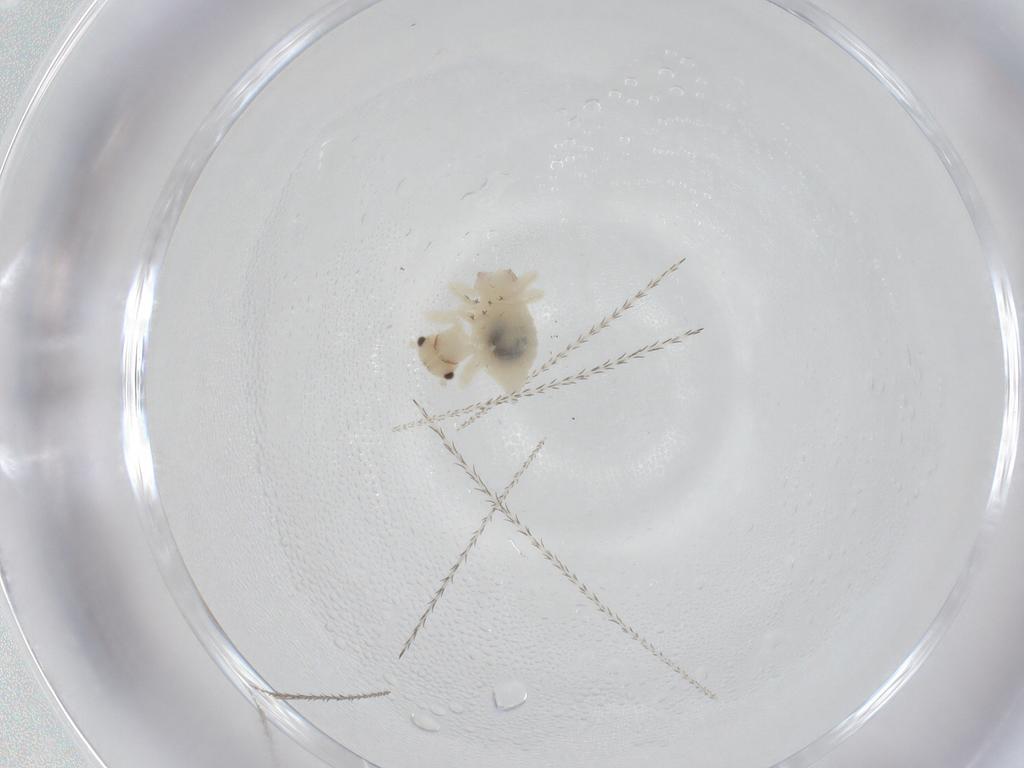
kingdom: Animalia
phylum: Arthropoda
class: Insecta
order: Psocodea
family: Amphipsocidae
